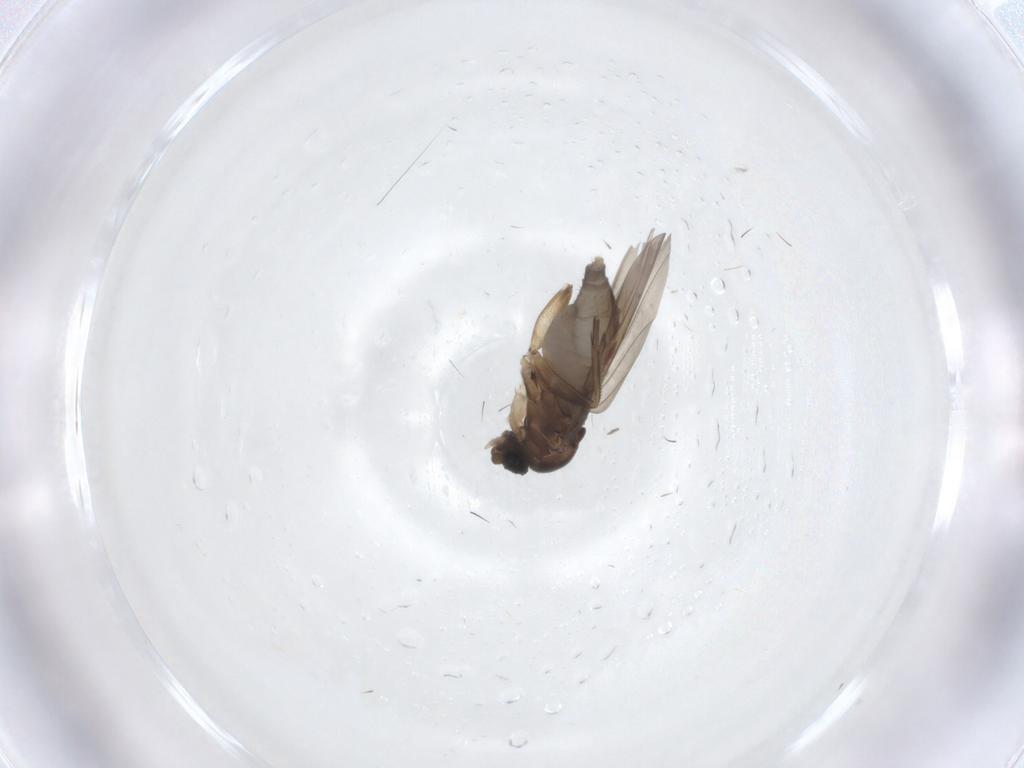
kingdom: Animalia
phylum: Arthropoda
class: Insecta
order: Diptera
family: Phoridae
